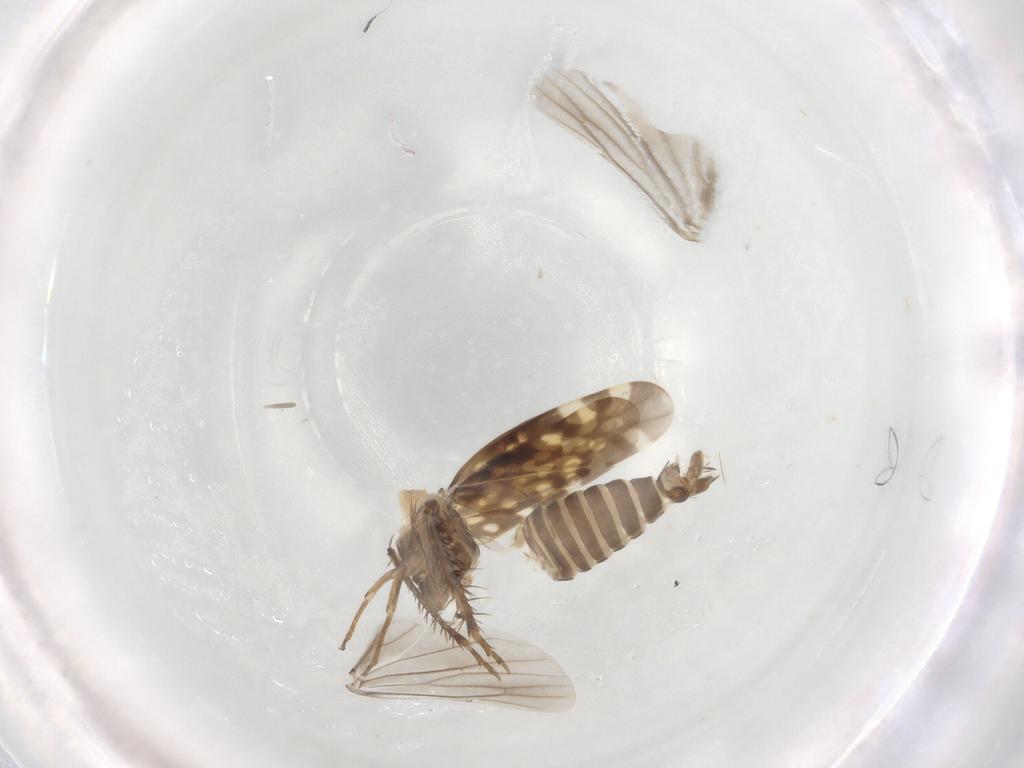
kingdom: Animalia
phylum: Arthropoda
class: Insecta
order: Hemiptera
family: Cicadellidae
